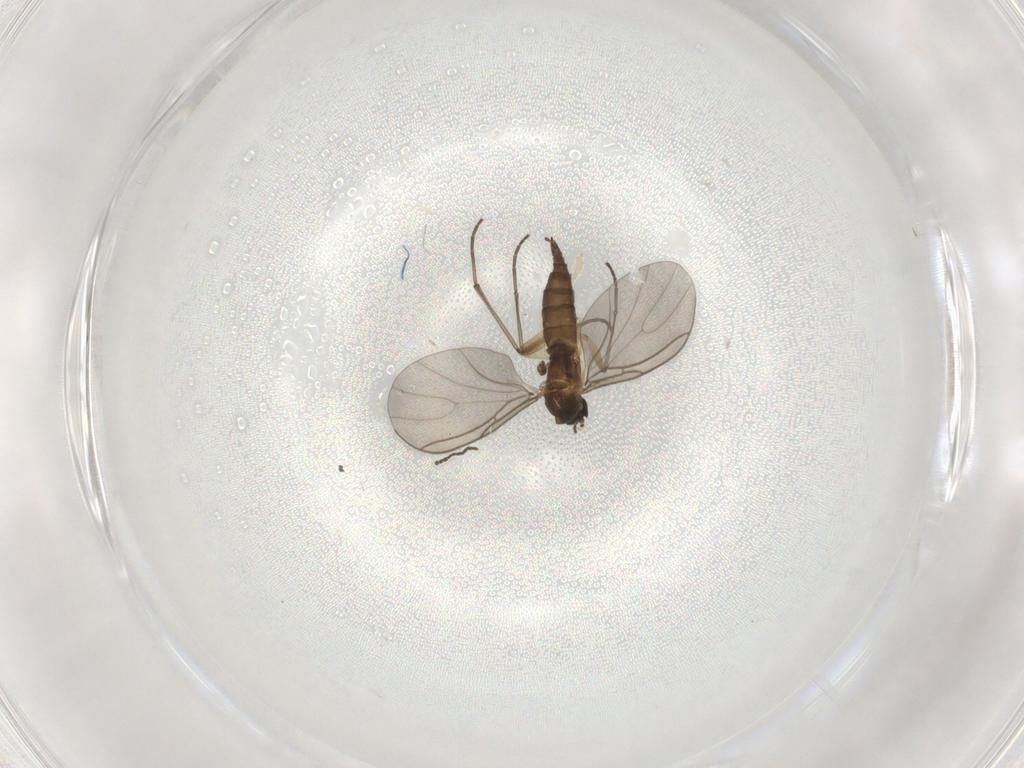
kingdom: Animalia
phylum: Arthropoda
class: Insecta
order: Diptera
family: Sciaridae
